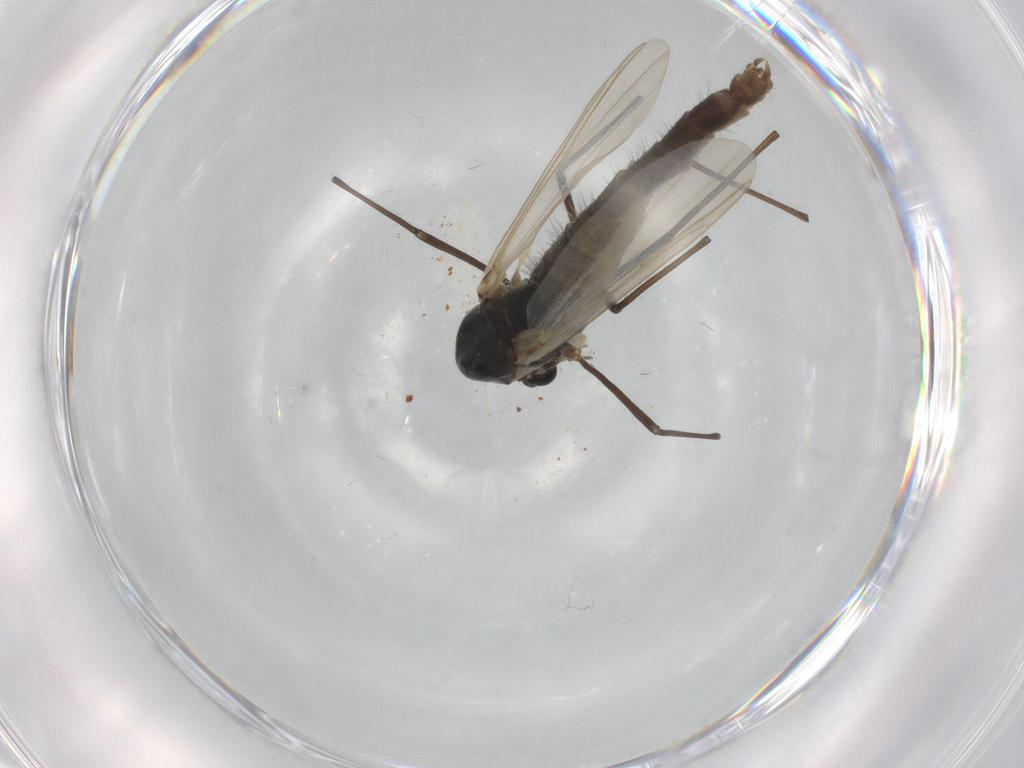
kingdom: Animalia
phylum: Arthropoda
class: Insecta
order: Diptera
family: Chironomidae
